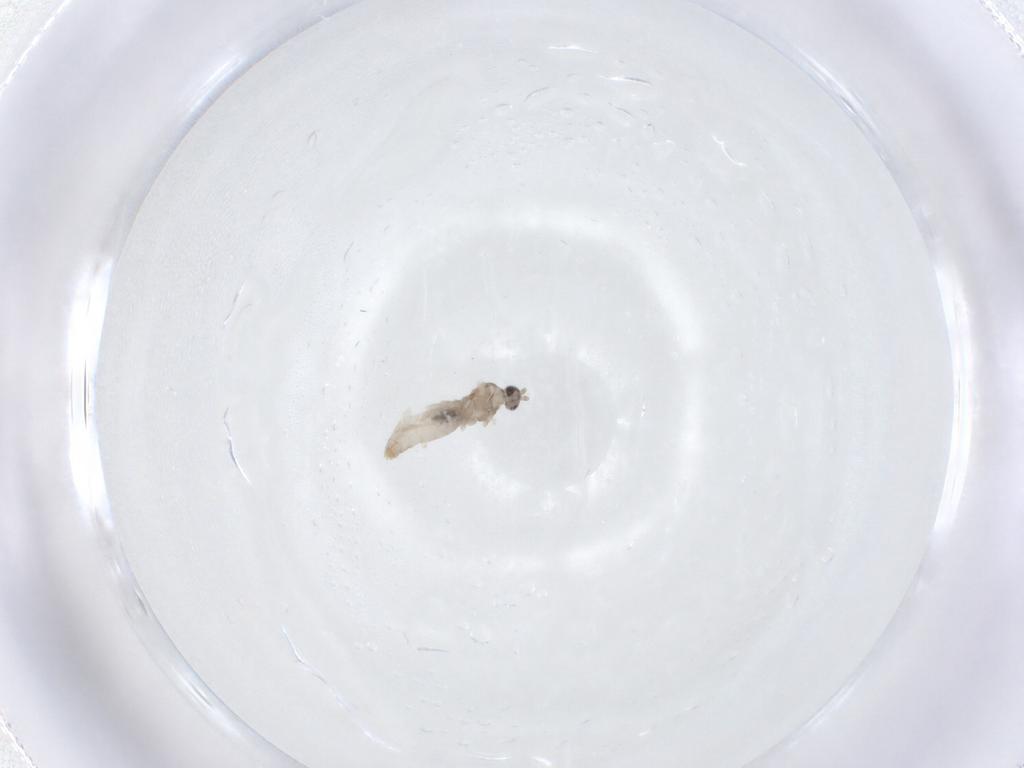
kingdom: Animalia
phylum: Arthropoda
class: Insecta
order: Diptera
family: Cecidomyiidae
